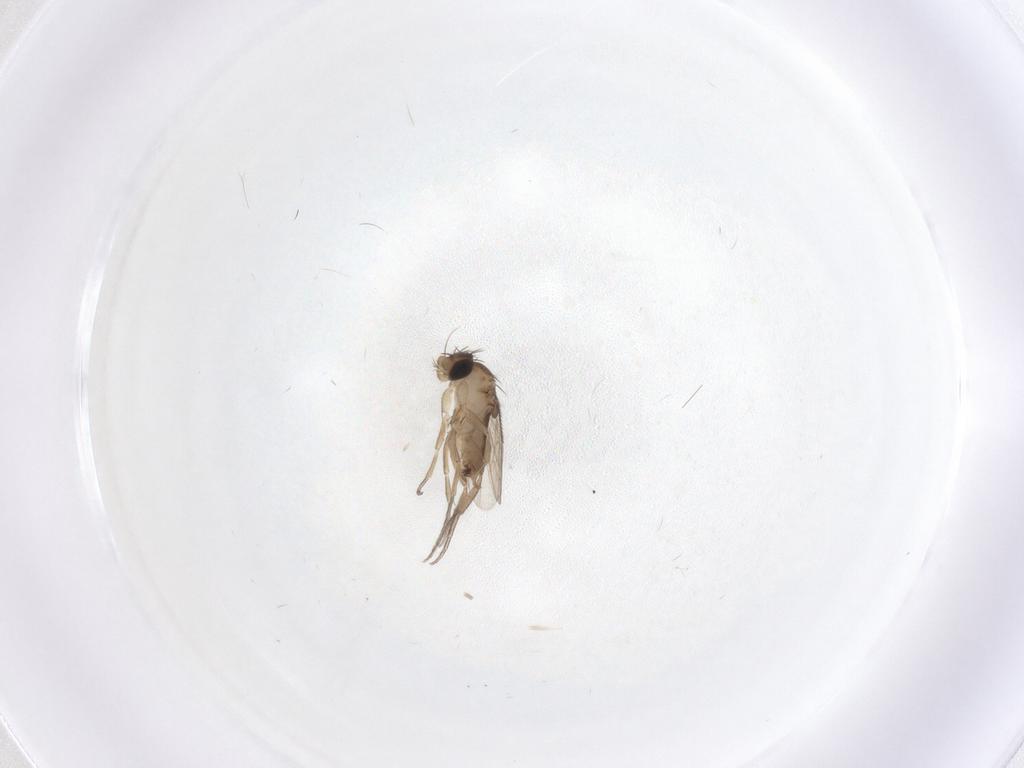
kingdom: Animalia
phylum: Arthropoda
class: Insecta
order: Diptera
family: Phoridae
